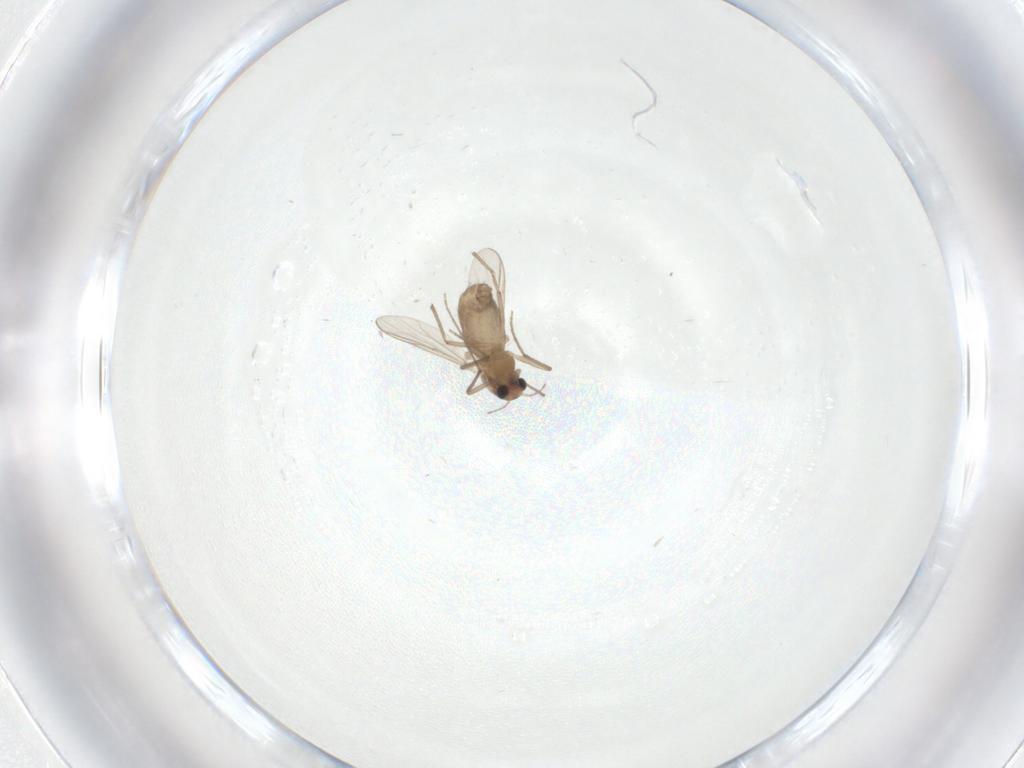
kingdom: Animalia
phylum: Arthropoda
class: Insecta
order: Diptera
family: Chironomidae
